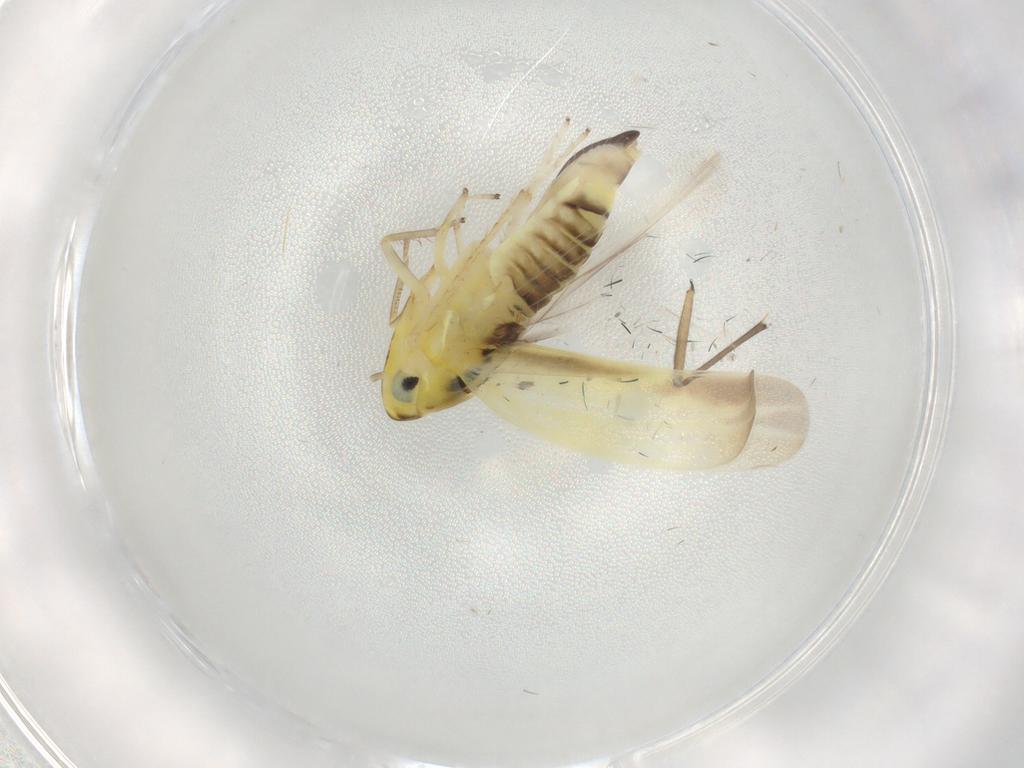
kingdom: Animalia
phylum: Arthropoda
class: Insecta
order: Hemiptera
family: Cicadellidae
